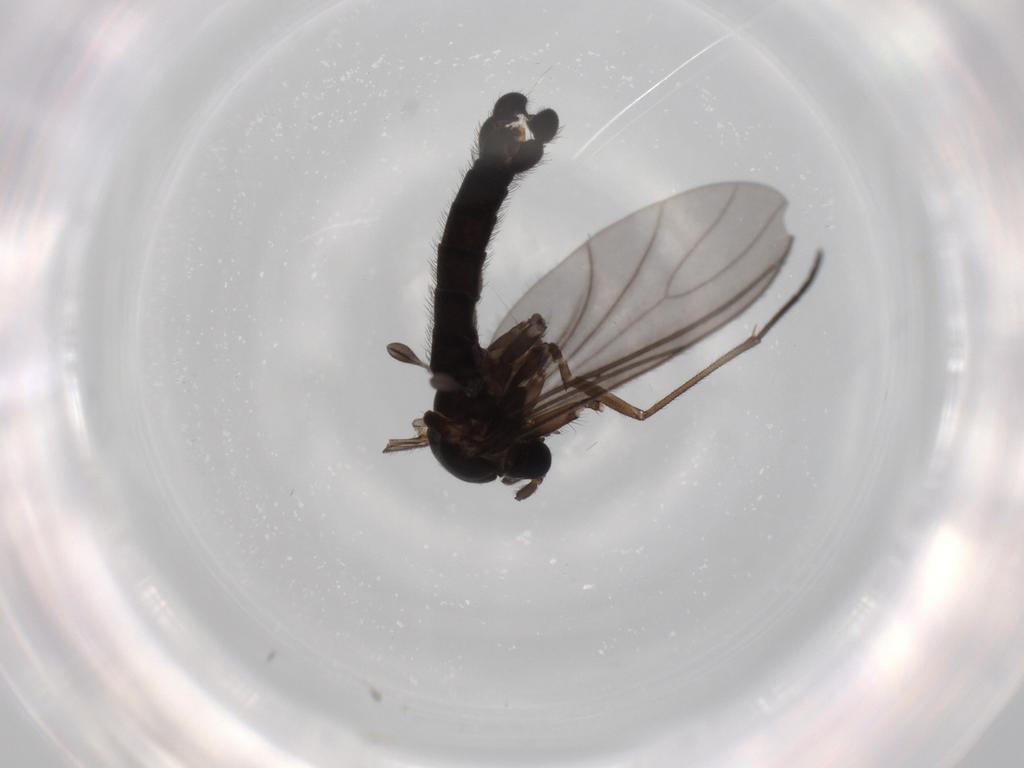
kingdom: Animalia
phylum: Arthropoda
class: Insecta
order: Diptera
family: Sciaridae
